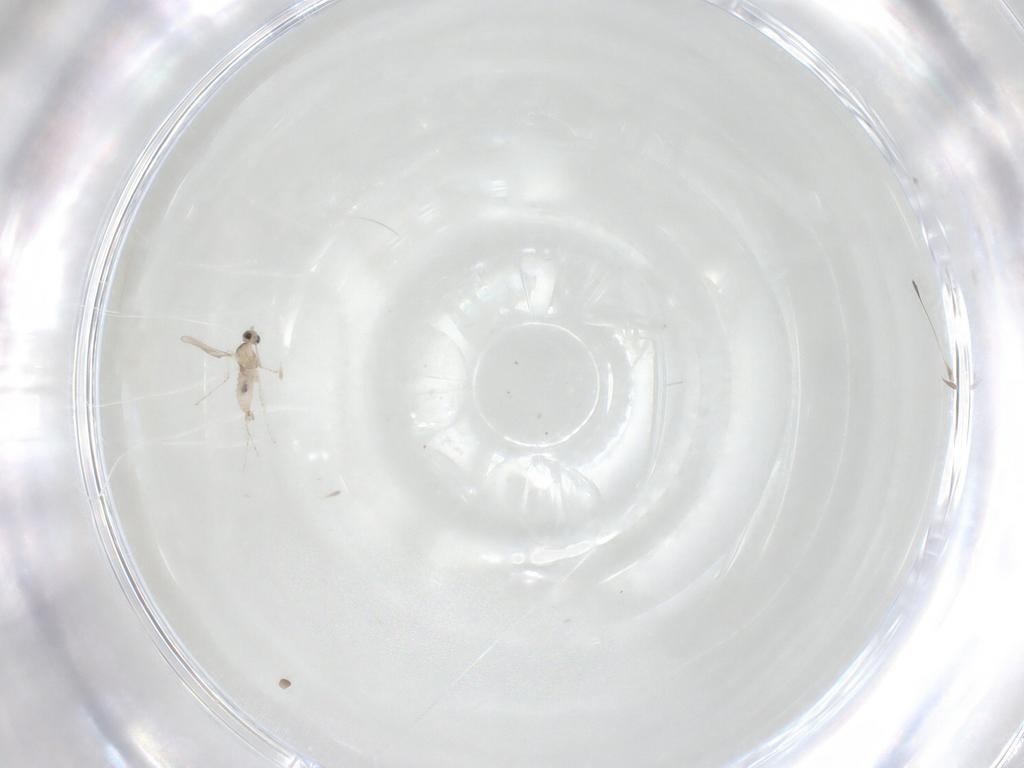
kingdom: Animalia
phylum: Arthropoda
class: Insecta
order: Diptera
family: Cecidomyiidae
